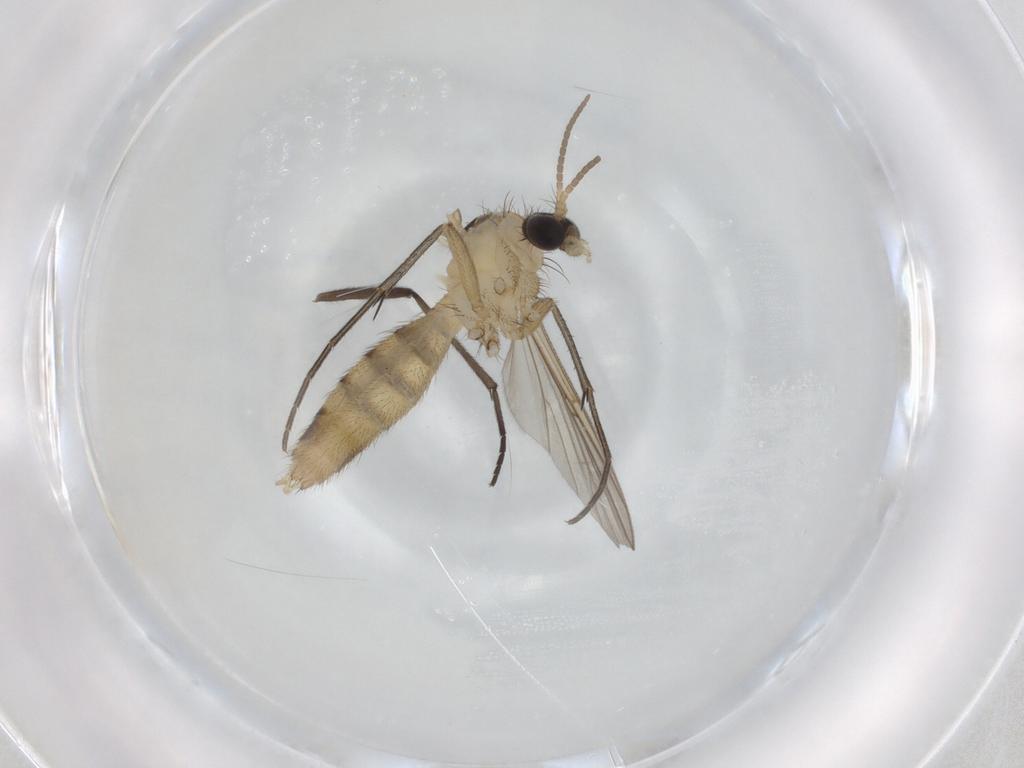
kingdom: Animalia
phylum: Arthropoda
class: Insecta
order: Diptera
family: Mycetophilidae
